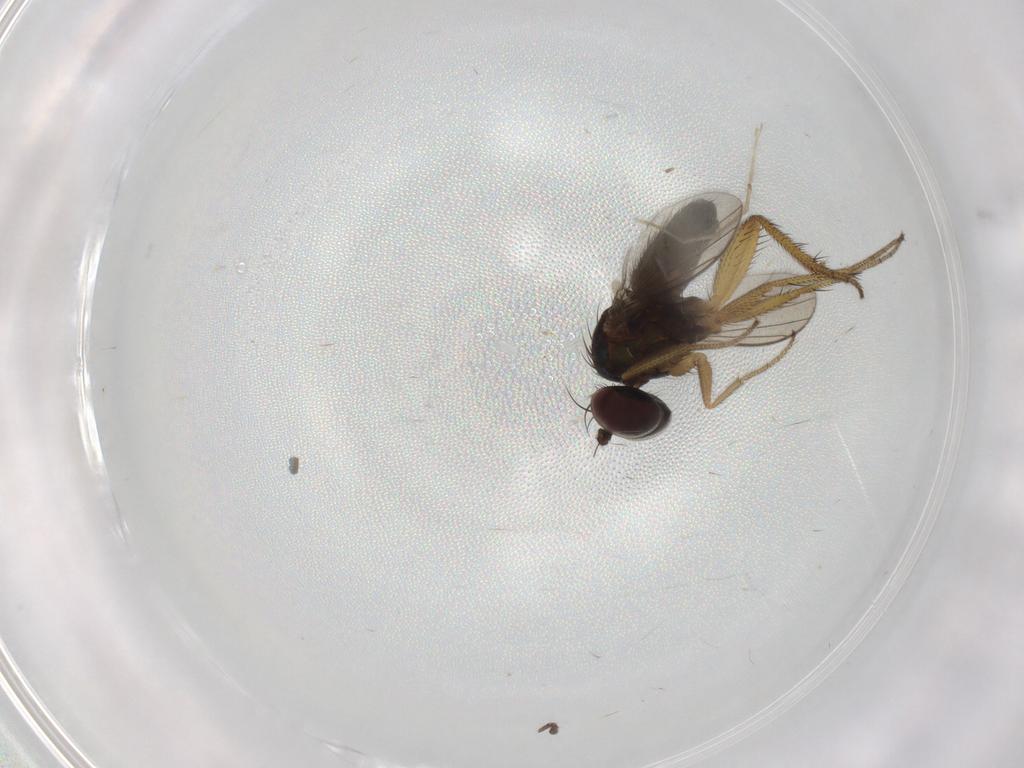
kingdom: Animalia
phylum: Arthropoda
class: Insecta
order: Diptera
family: Dolichopodidae
